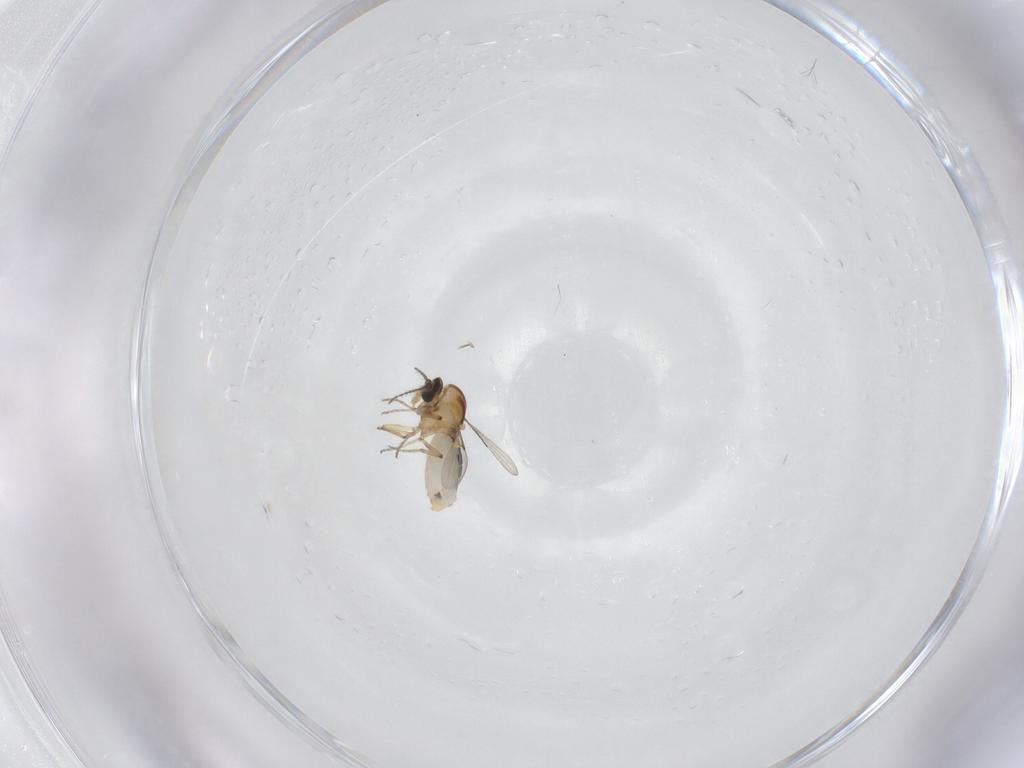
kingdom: Animalia
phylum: Arthropoda
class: Insecta
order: Diptera
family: Ceratopogonidae
